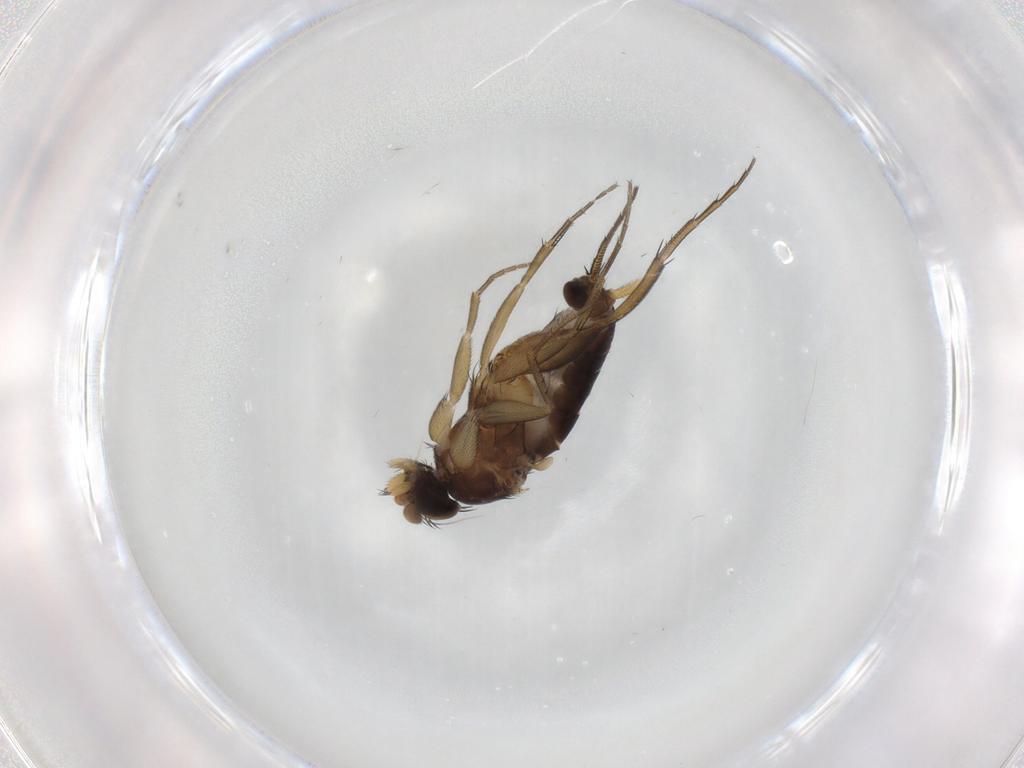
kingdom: Animalia
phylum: Arthropoda
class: Insecta
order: Diptera
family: Phoridae
